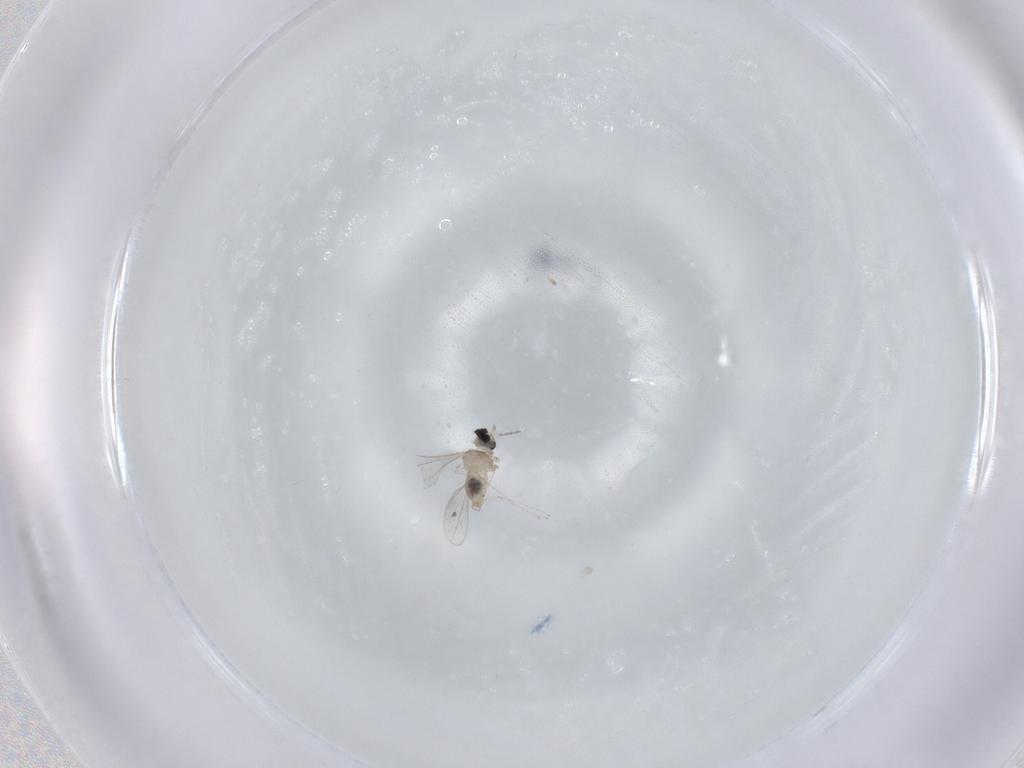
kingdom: Animalia
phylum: Arthropoda
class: Insecta
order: Diptera
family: Cecidomyiidae
